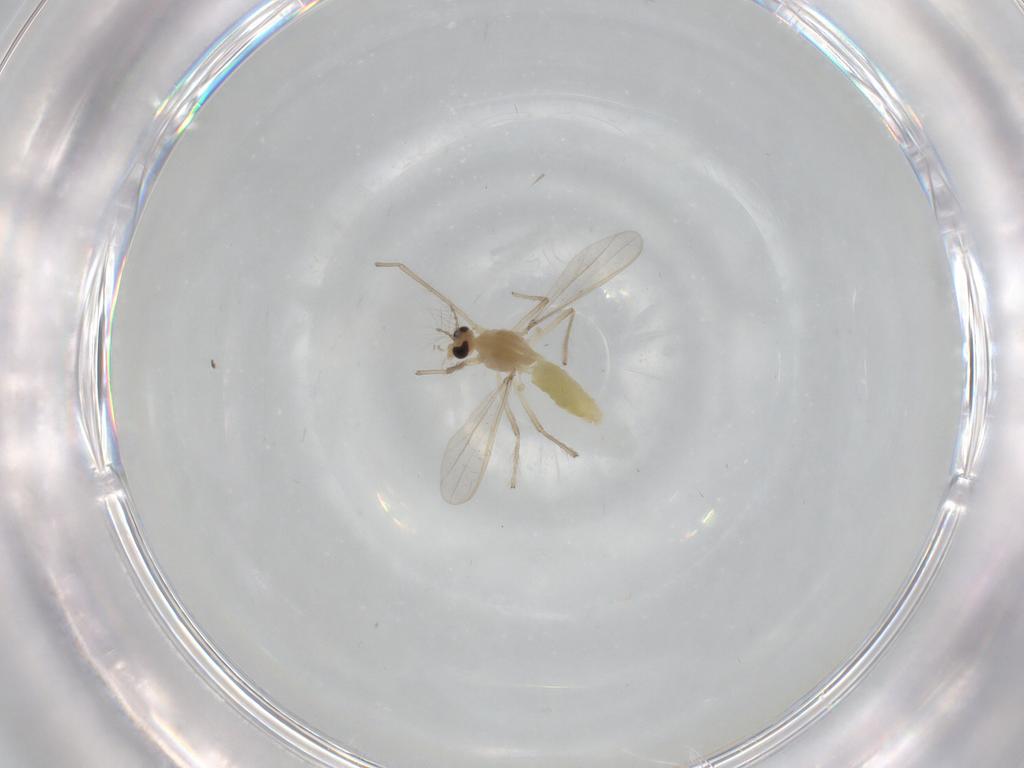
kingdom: Animalia
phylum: Arthropoda
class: Insecta
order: Diptera
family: Chironomidae
